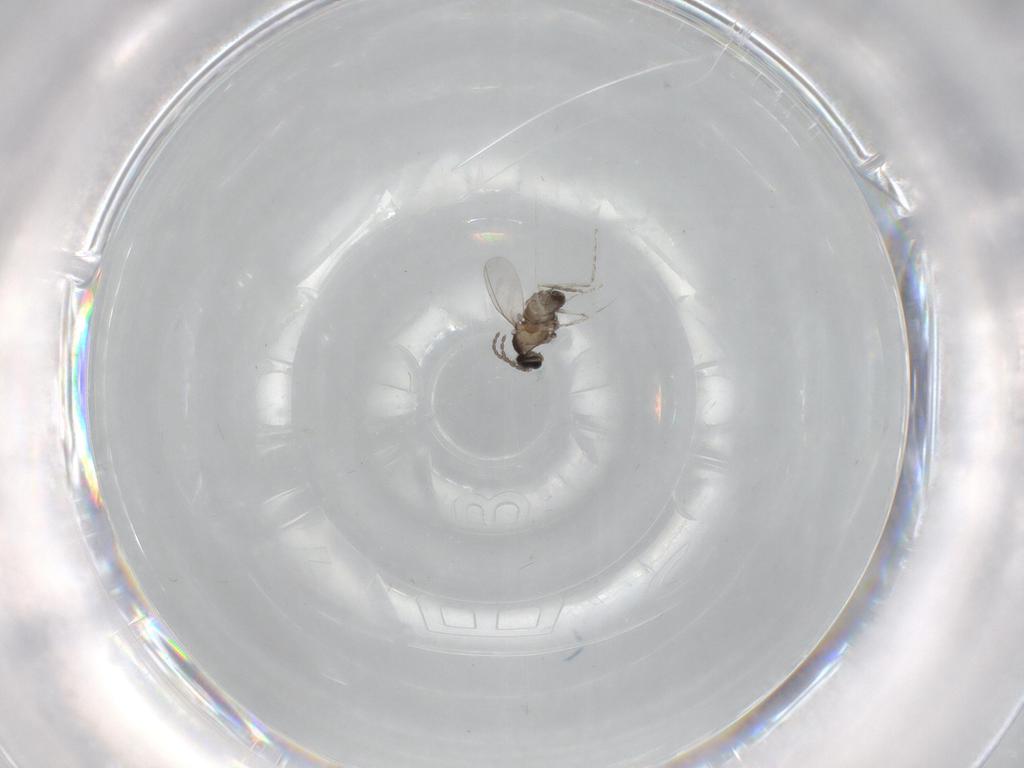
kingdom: Animalia
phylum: Arthropoda
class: Insecta
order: Diptera
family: Cecidomyiidae
